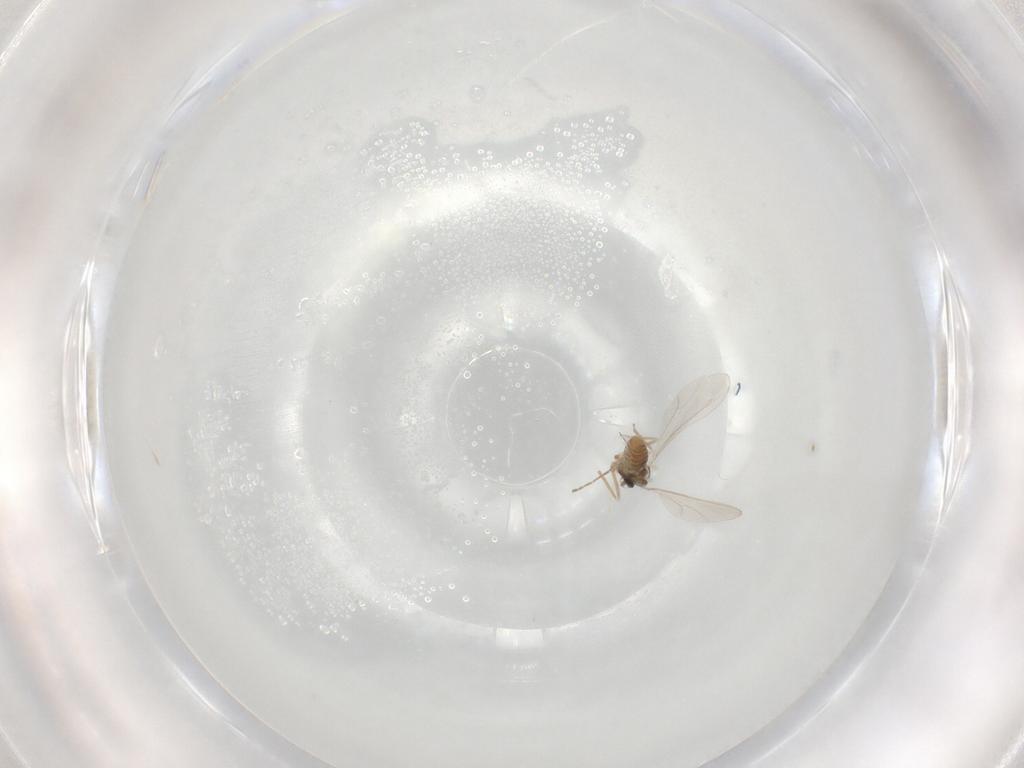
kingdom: Animalia
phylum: Arthropoda
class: Insecta
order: Diptera
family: Cecidomyiidae
